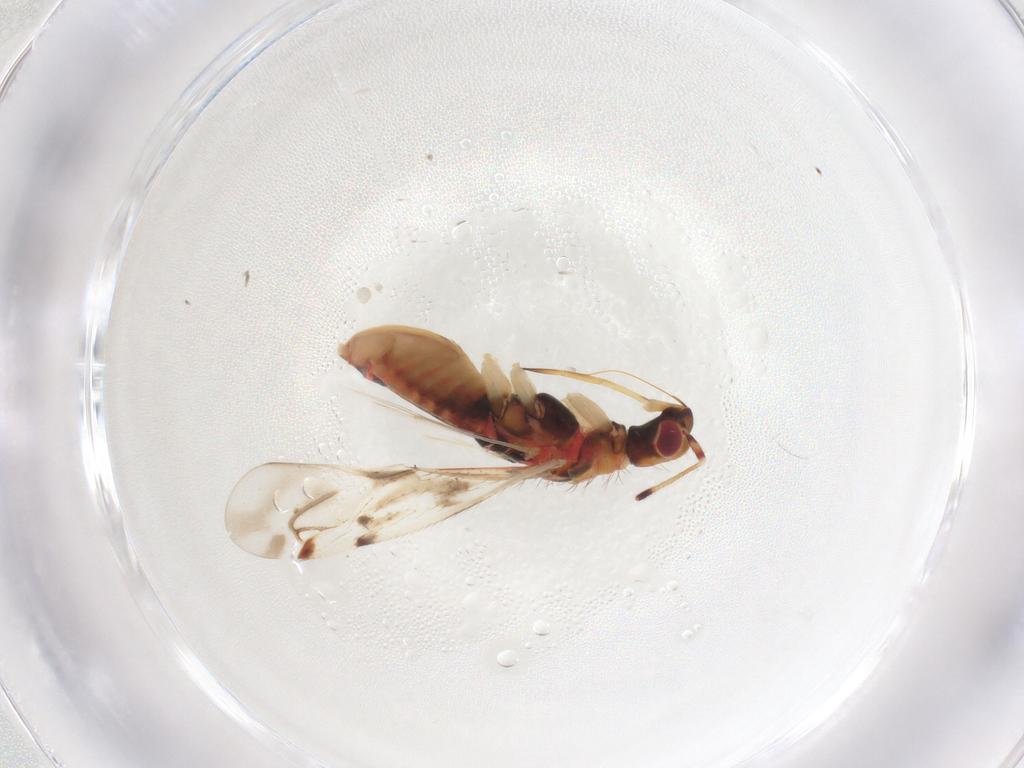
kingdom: Animalia
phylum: Arthropoda
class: Insecta
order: Hemiptera
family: Miridae
